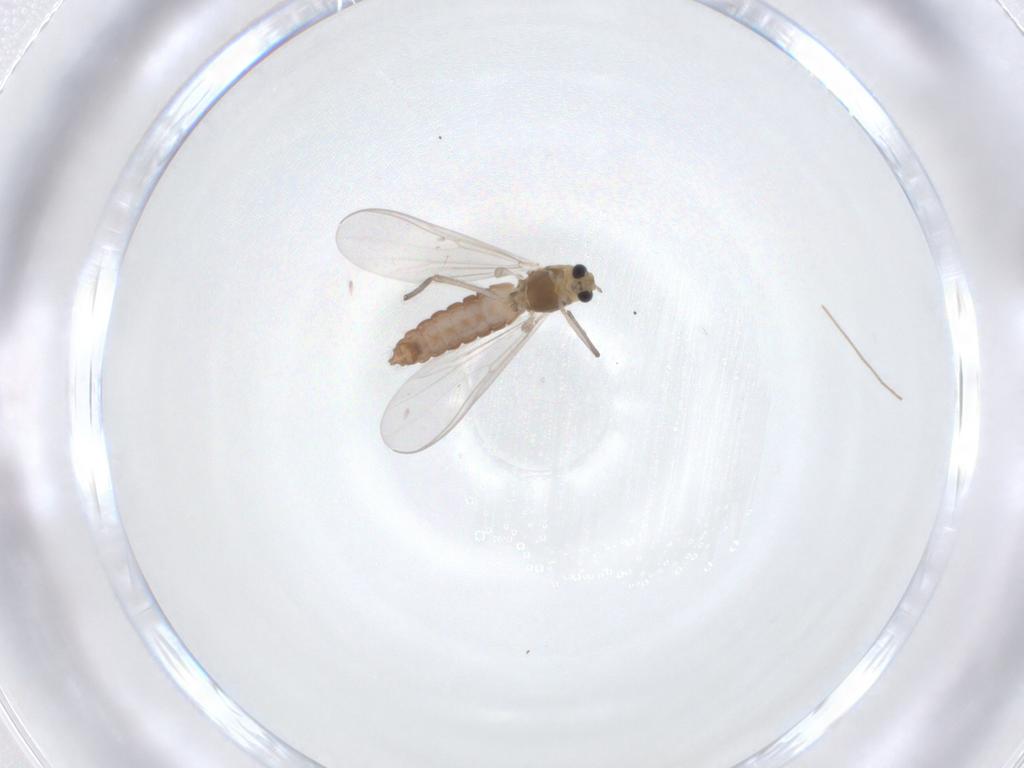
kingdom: Animalia
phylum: Arthropoda
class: Insecta
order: Diptera
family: Chironomidae
